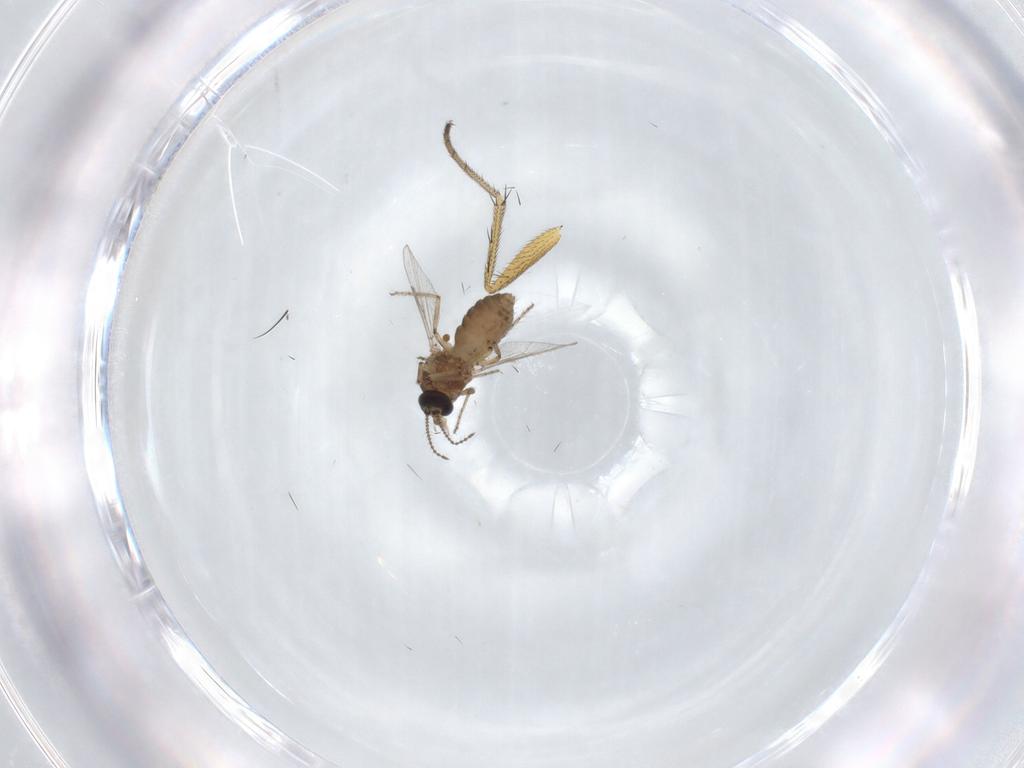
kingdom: Animalia
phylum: Arthropoda
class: Insecta
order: Diptera
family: Ceratopogonidae
